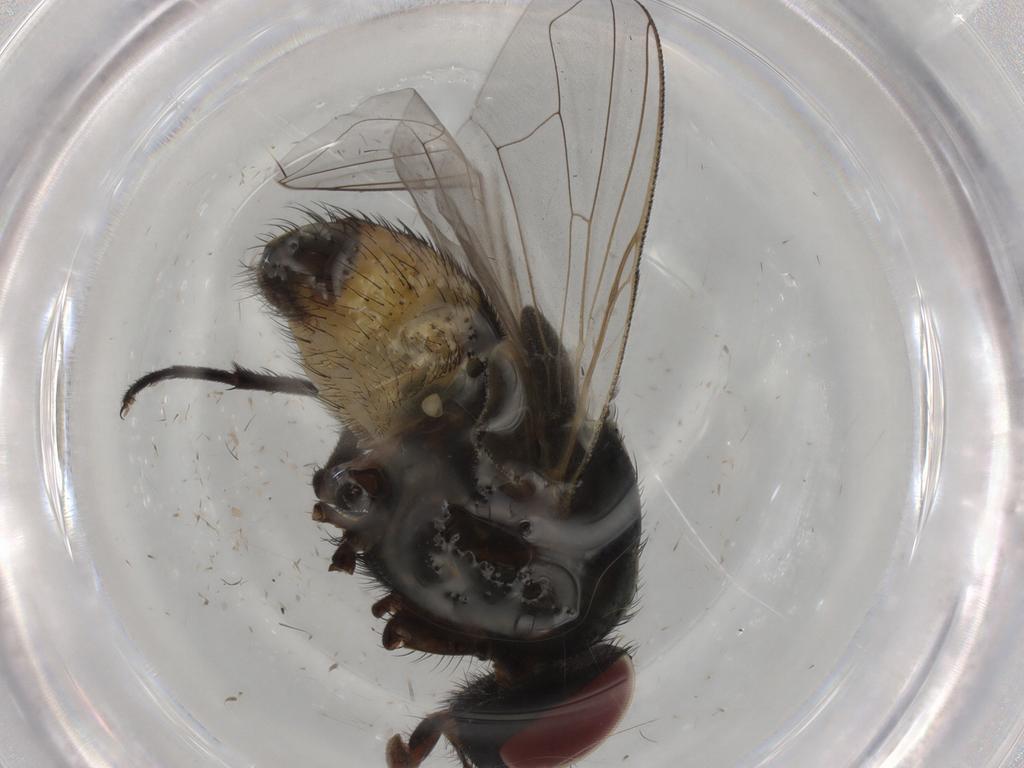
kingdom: Animalia
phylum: Arthropoda
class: Insecta
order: Diptera
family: Muscidae
